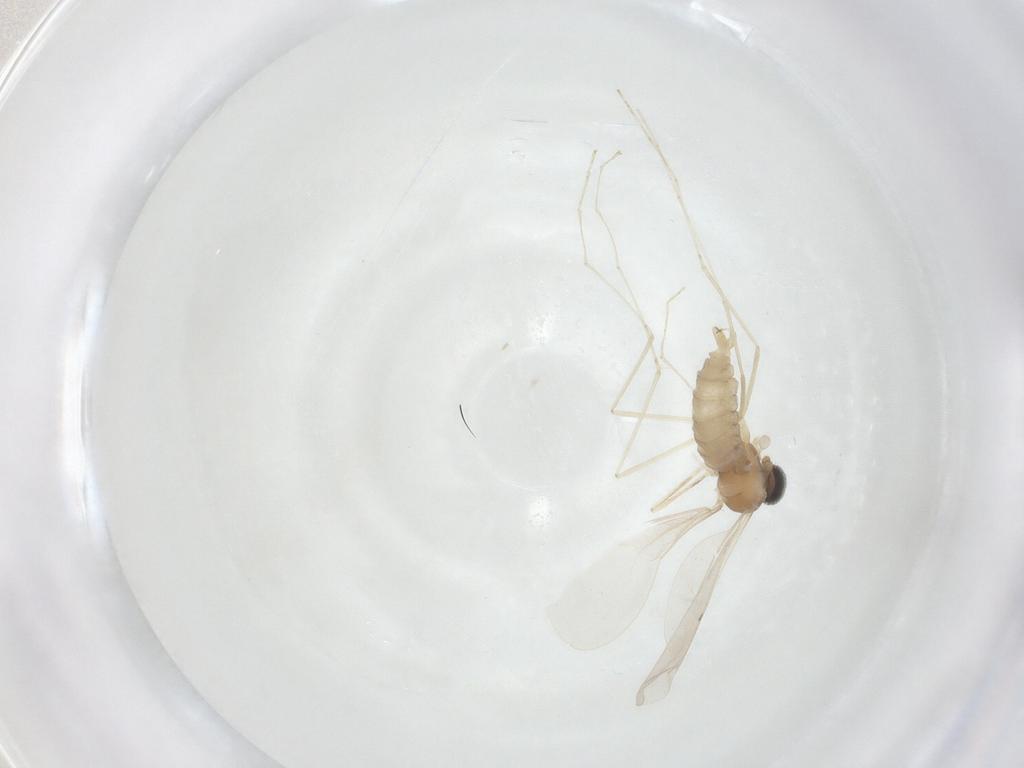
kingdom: Animalia
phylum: Arthropoda
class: Insecta
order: Diptera
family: Cecidomyiidae
